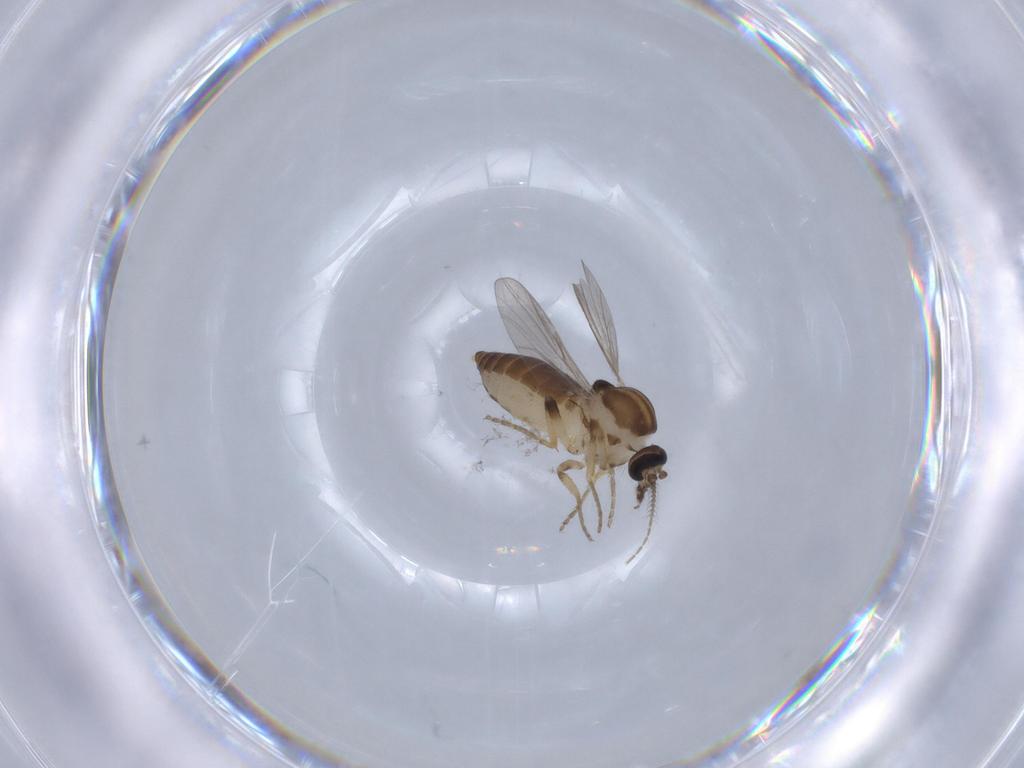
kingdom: Animalia
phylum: Arthropoda
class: Insecta
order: Diptera
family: Ceratopogonidae
